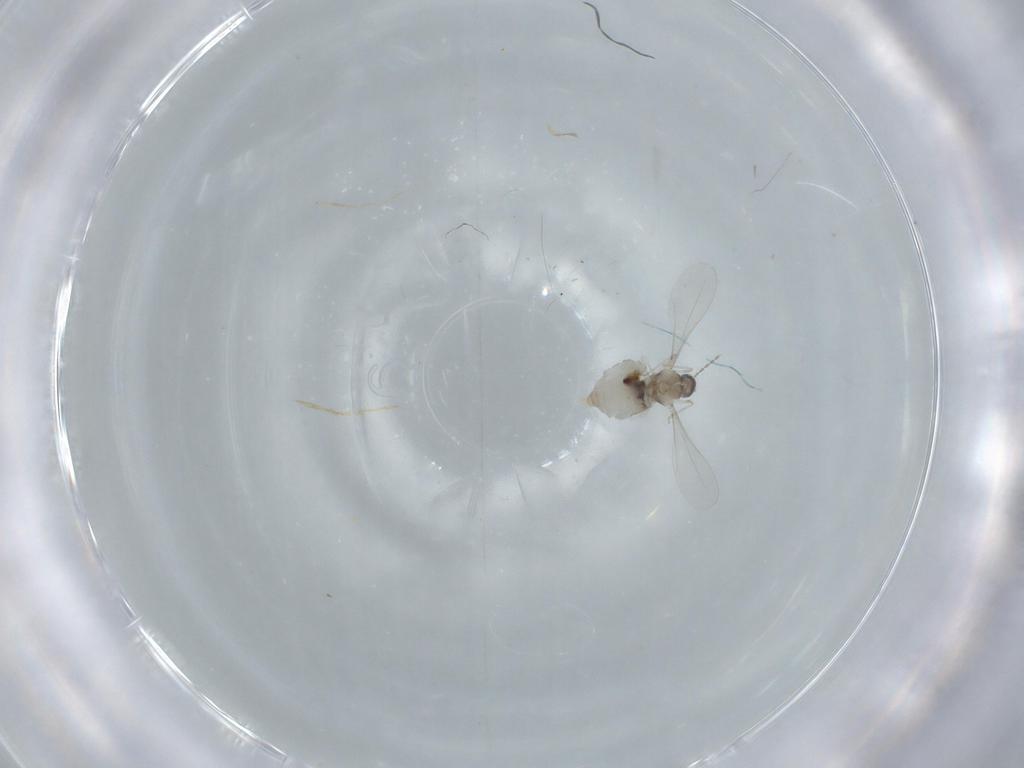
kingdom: Animalia
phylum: Arthropoda
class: Insecta
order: Diptera
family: Cecidomyiidae
